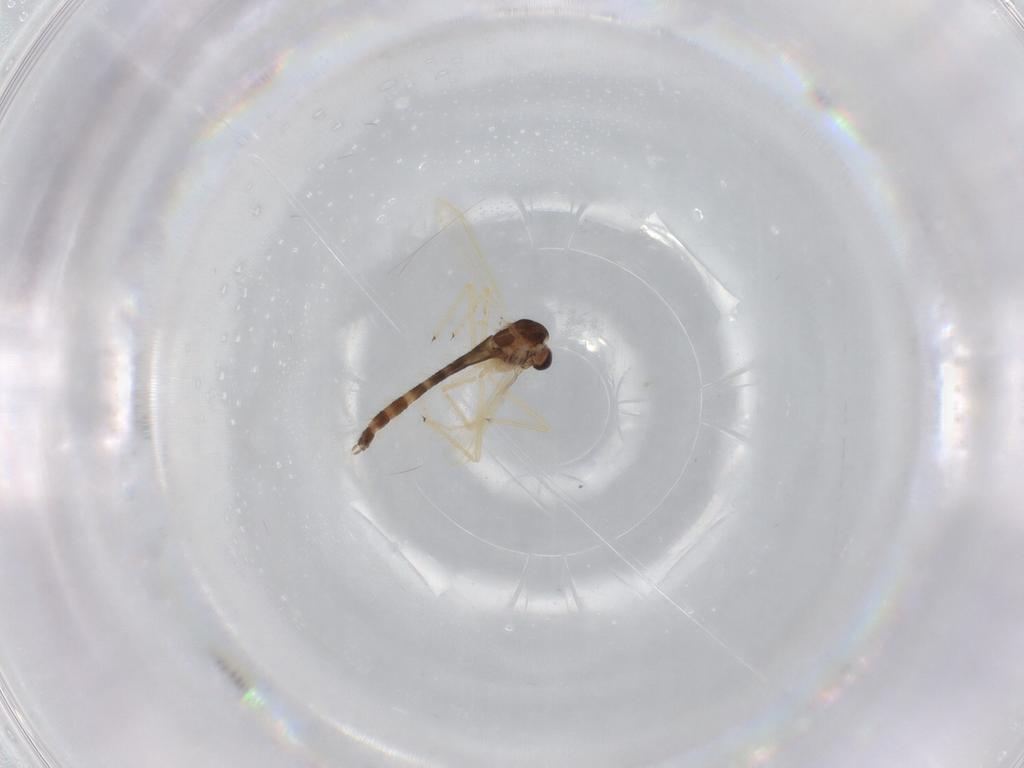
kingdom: Animalia
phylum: Arthropoda
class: Insecta
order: Diptera
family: Chironomidae
